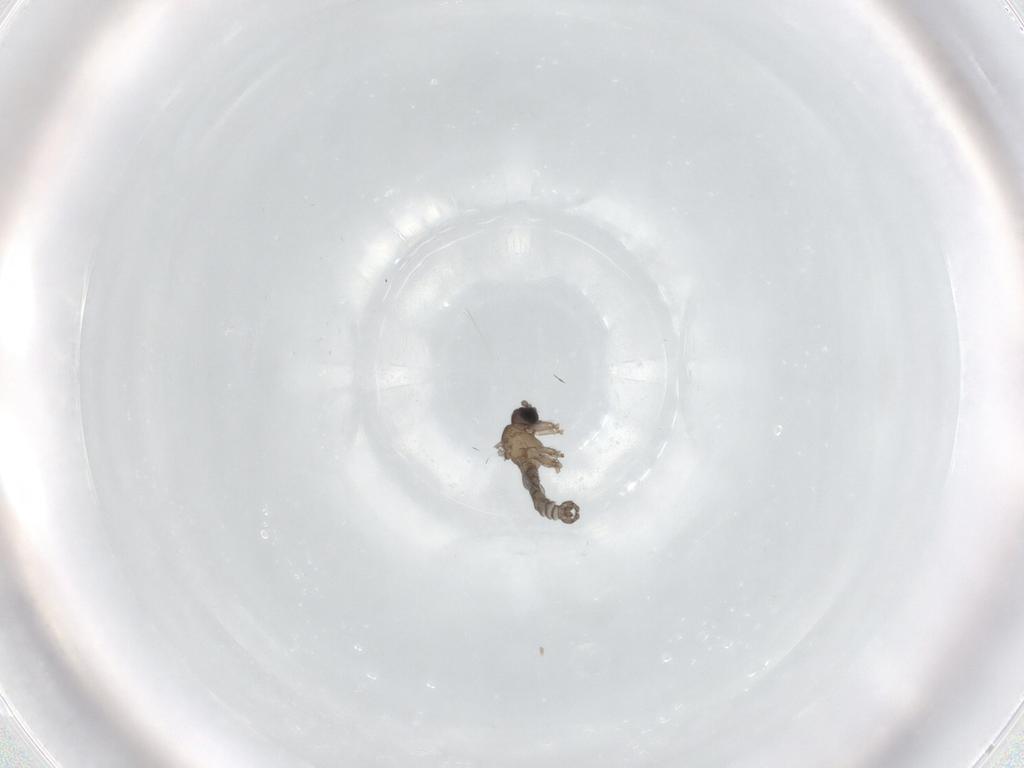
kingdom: Animalia
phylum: Arthropoda
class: Insecta
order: Diptera
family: Sciaridae
